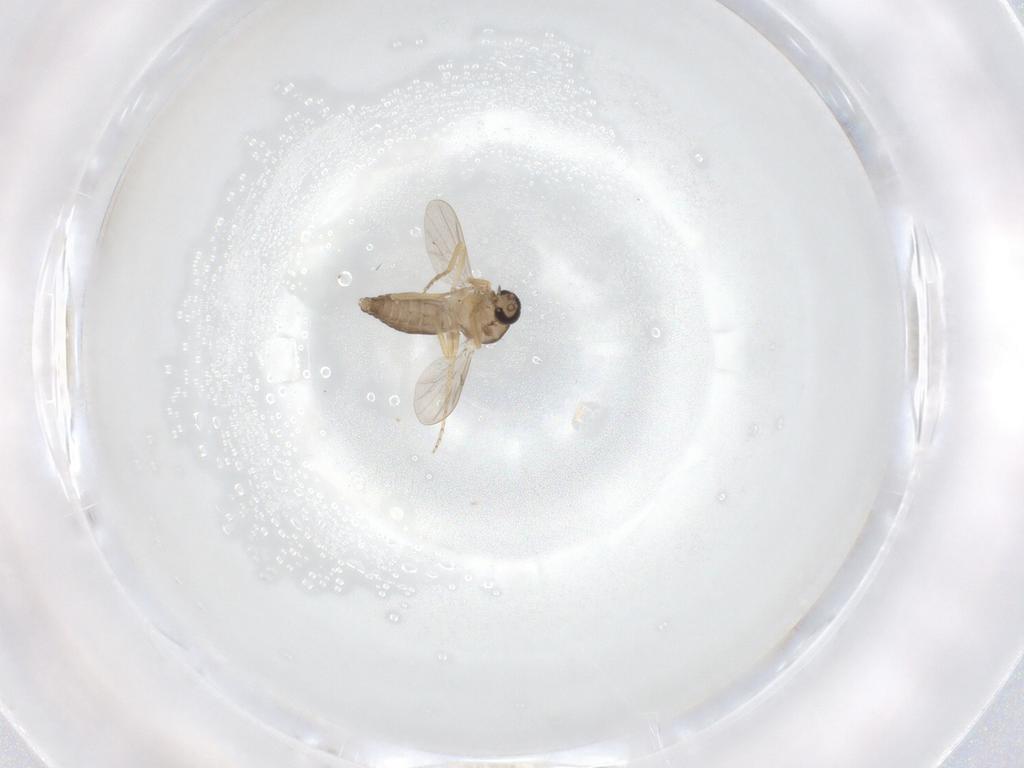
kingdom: Animalia
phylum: Arthropoda
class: Insecta
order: Diptera
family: Ceratopogonidae
